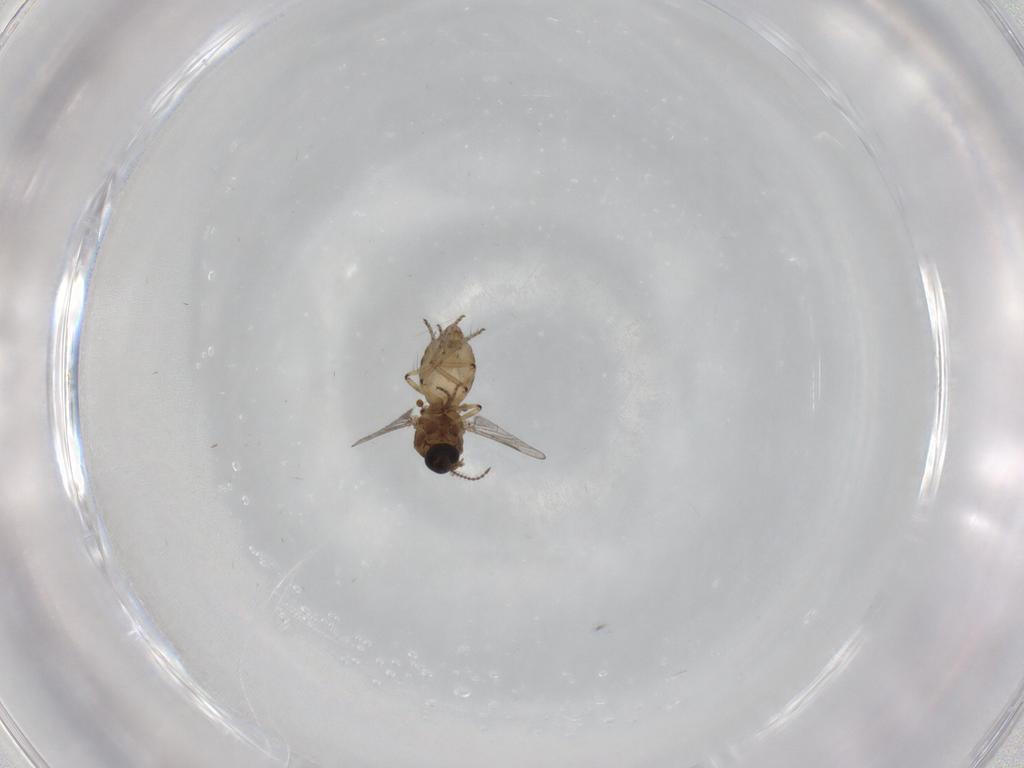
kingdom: Animalia
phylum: Arthropoda
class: Insecta
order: Diptera
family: Ceratopogonidae
